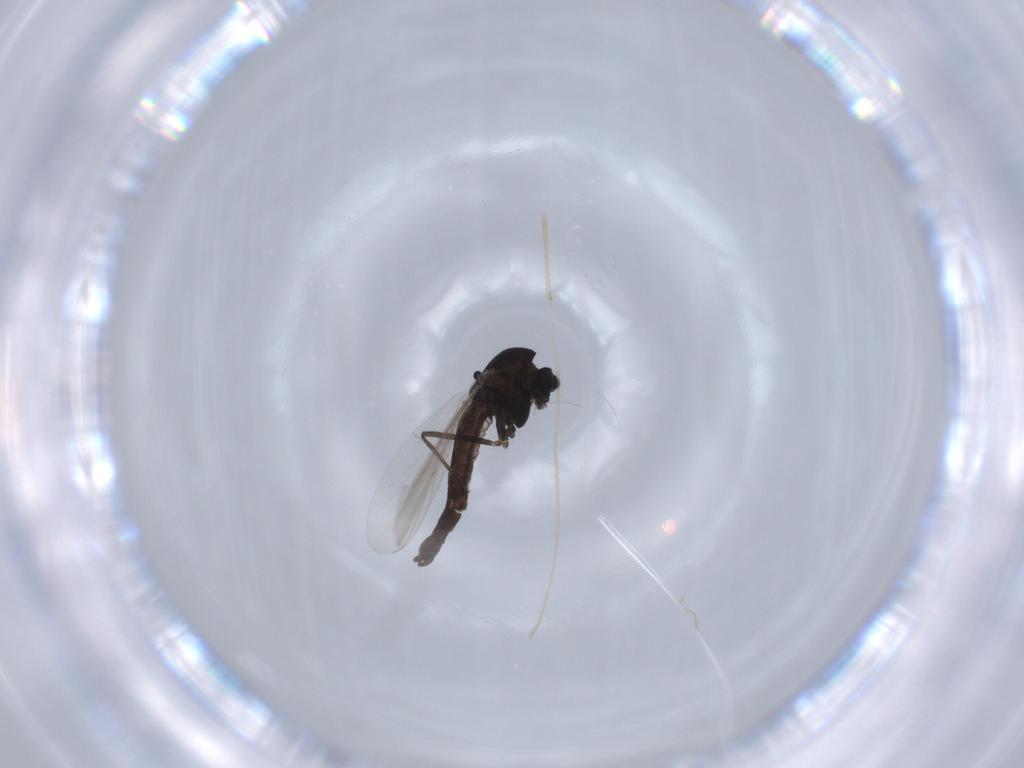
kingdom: Animalia
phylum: Arthropoda
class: Insecta
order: Diptera
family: Chironomidae
